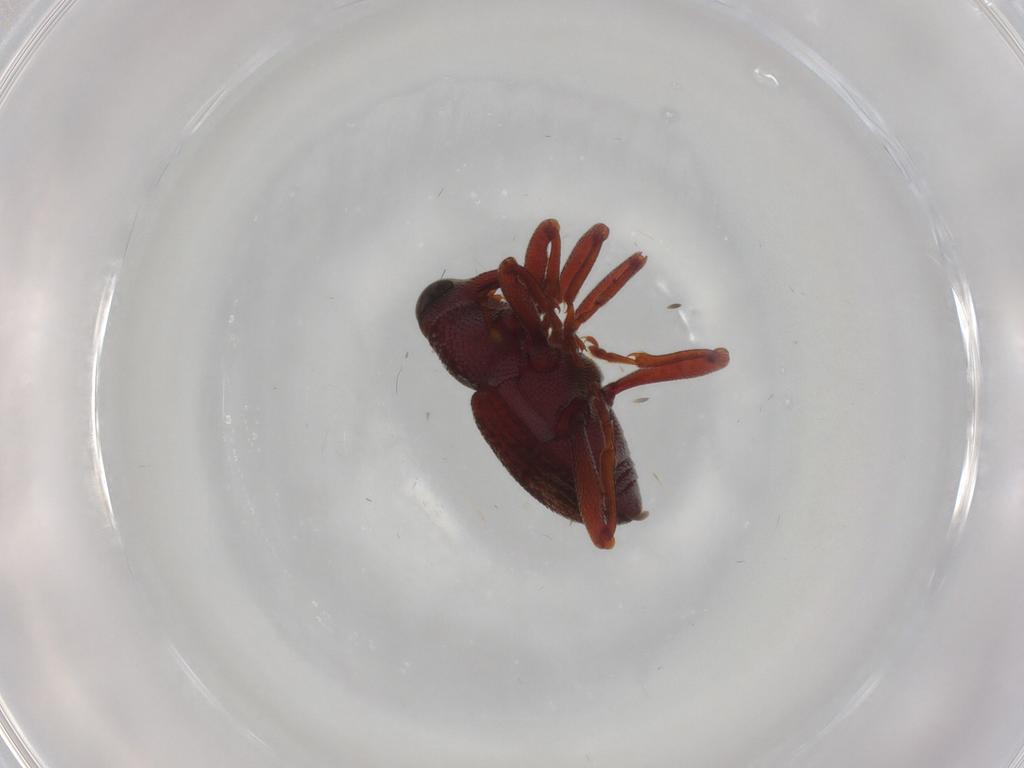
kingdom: Animalia
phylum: Arthropoda
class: Insecta
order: Coleoptera
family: Curculionidae
